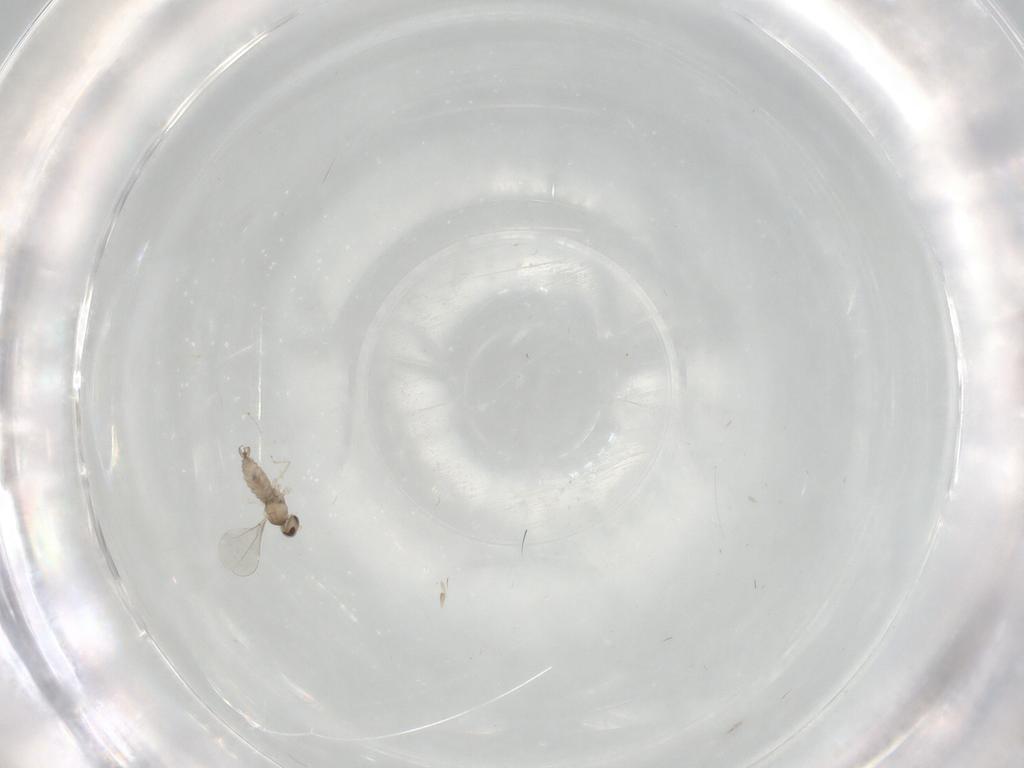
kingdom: Animalia
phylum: Arthropoda
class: Insecta
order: Diptera
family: Cecidomyiidae
